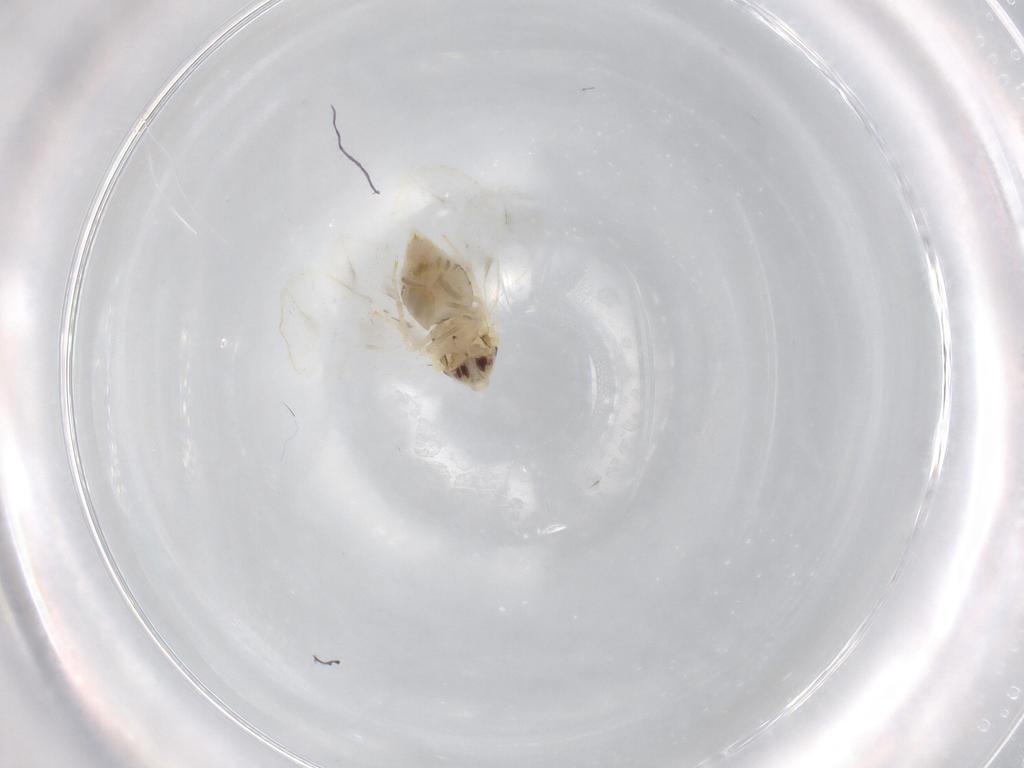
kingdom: Animalia
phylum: Arthropoda
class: Insecta
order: Hemiptera
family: Aleyrodidae
